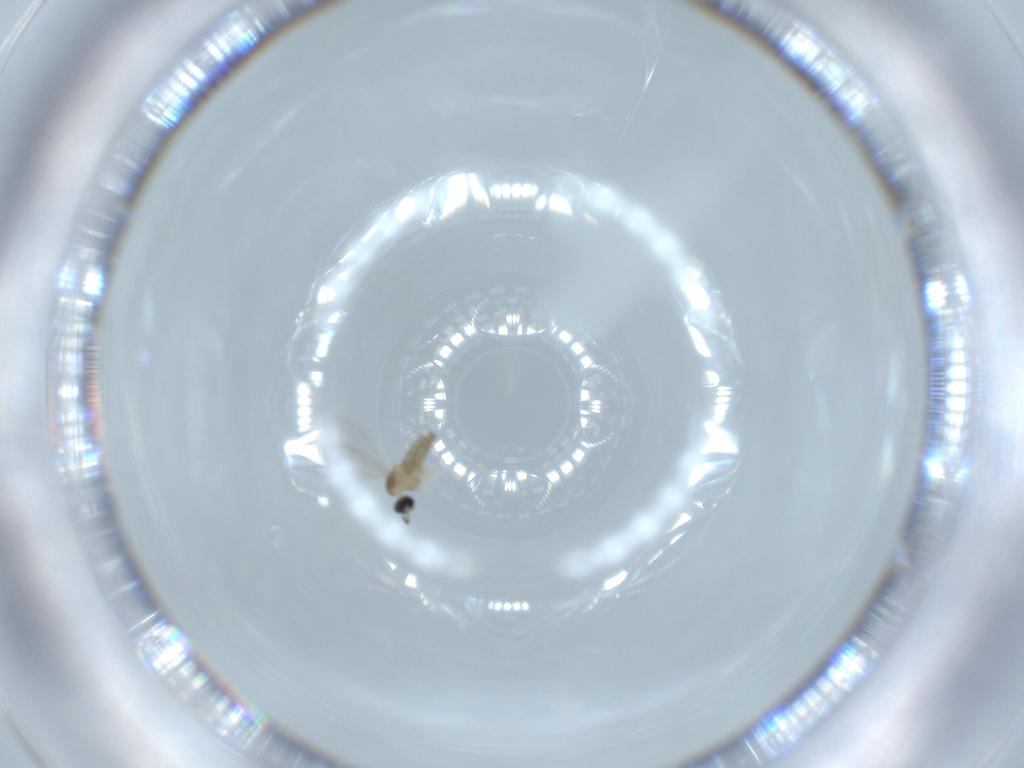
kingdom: Animalia
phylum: Arthropoda
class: Insecta
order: Diptera
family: Cecidomyiidae
